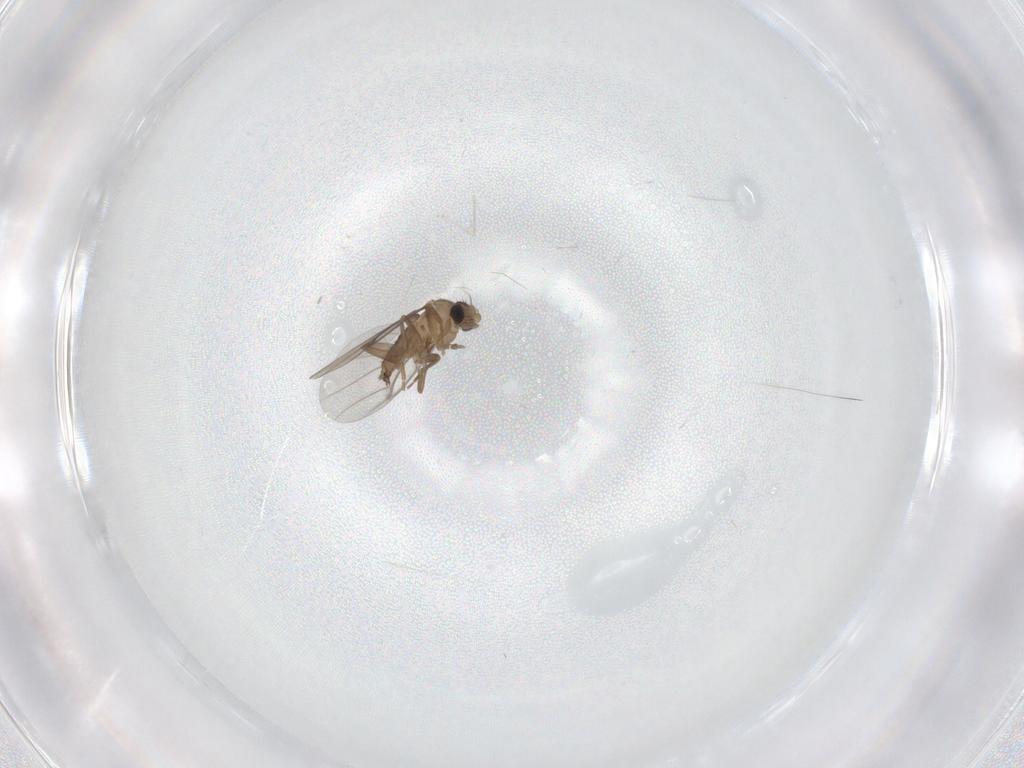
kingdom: Animalia
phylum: Arthropoda
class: Insecta
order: Diptera
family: Cecidomyiidae
